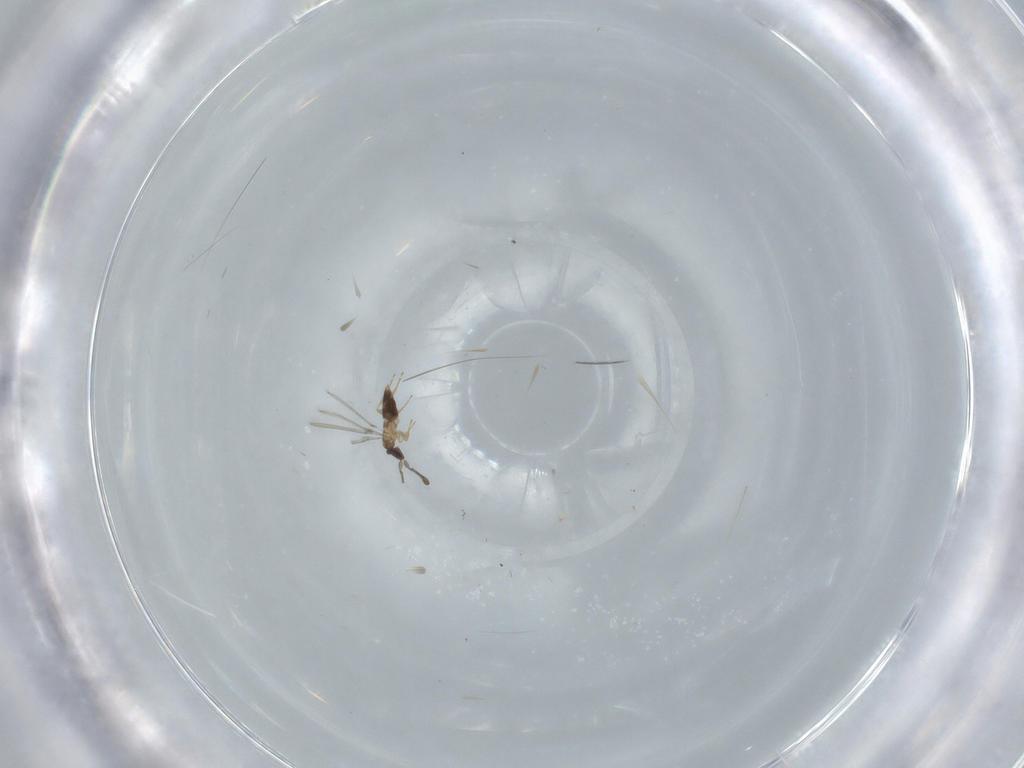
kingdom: Animalia
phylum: Arthropoda
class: Insecta
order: Hymenoptera
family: Mymaridae
